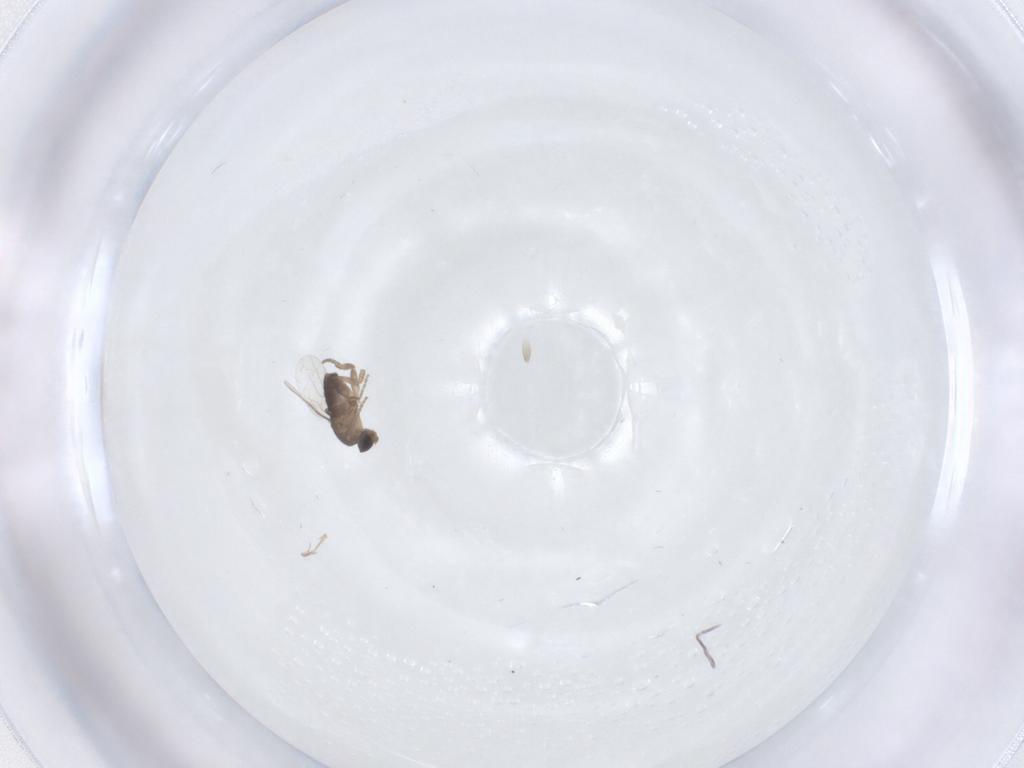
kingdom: Animalia
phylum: Arthropoda
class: Insecta
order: Diptera
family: Phoridae
